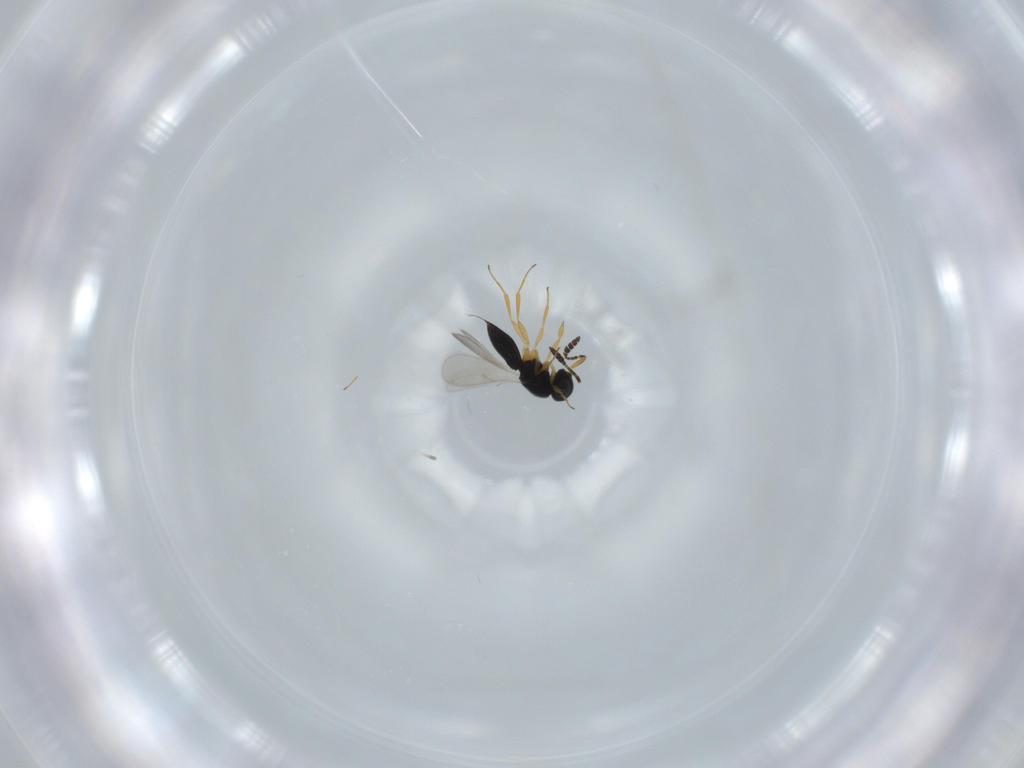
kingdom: Animalia
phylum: Arthropoda
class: Insecta
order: Hymenoptera
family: Scelionidae
